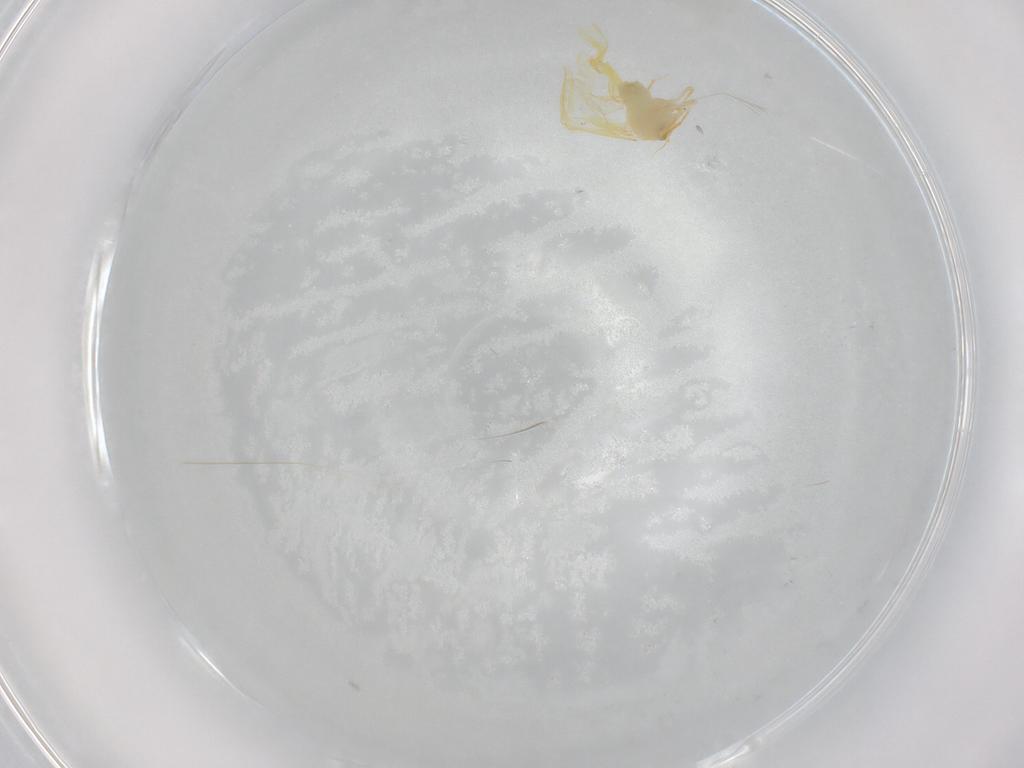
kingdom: Animalia
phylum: Arthropoda
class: Insecta
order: Hemiptera
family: Aleyrodidae
